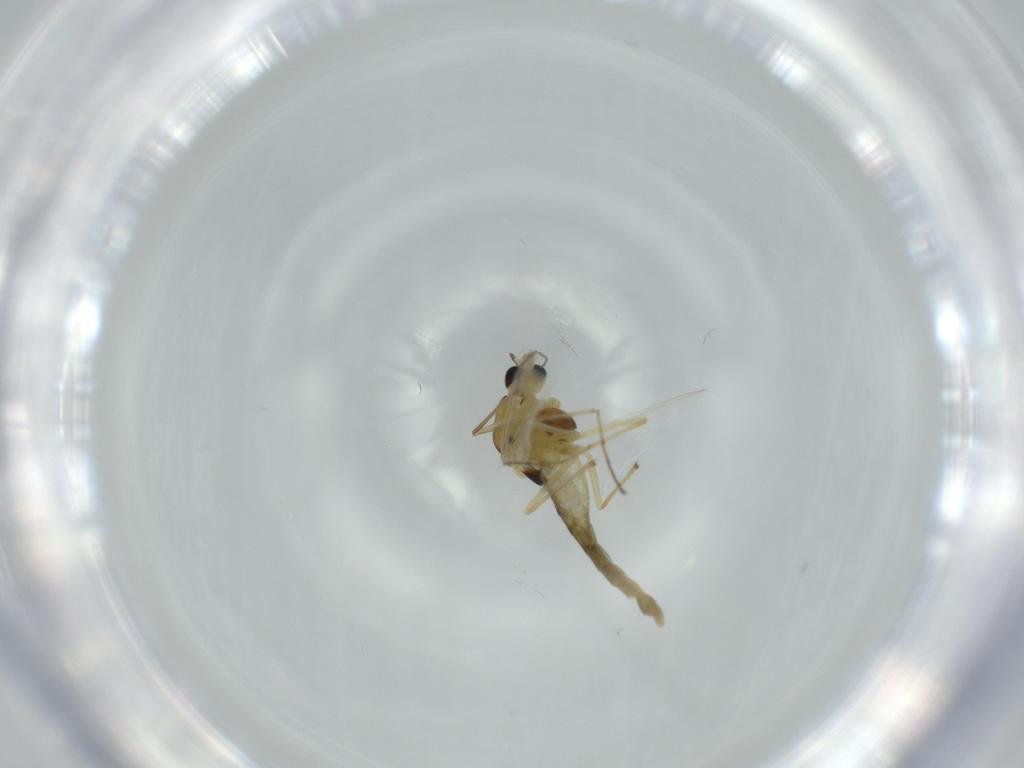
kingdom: Animalia
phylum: Arthropoda
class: Insecta
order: Diptera
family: Chironomidae
